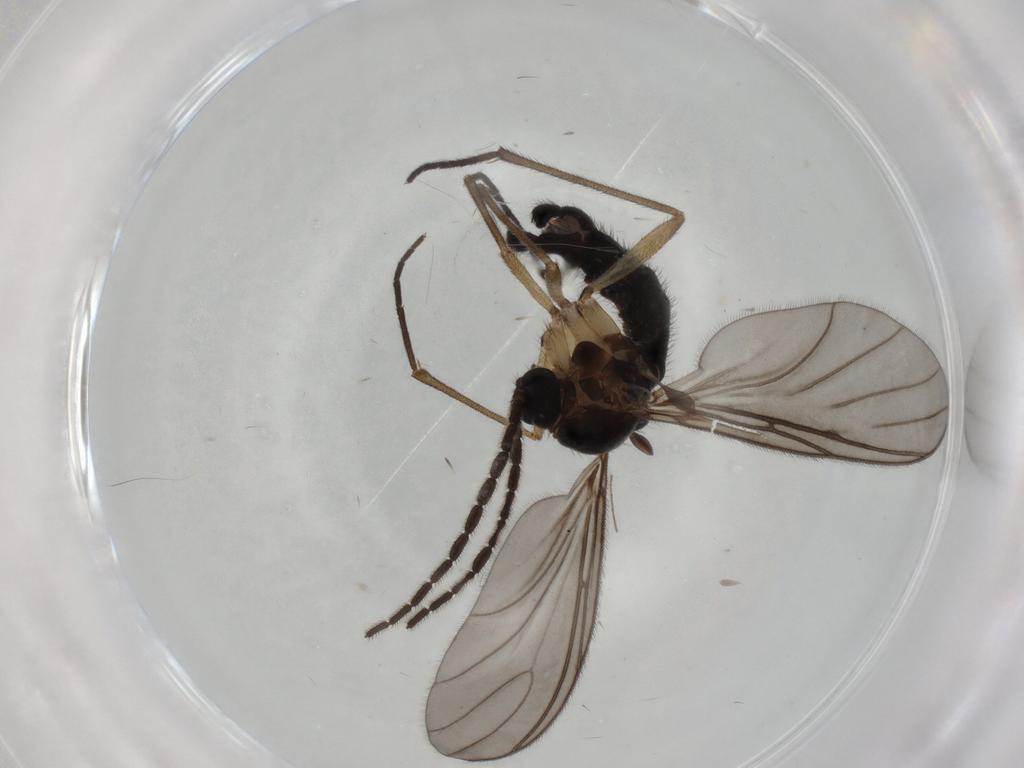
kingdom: Animalia
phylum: Arthropoda
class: Insecta
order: Diptera
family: Sciaridae
